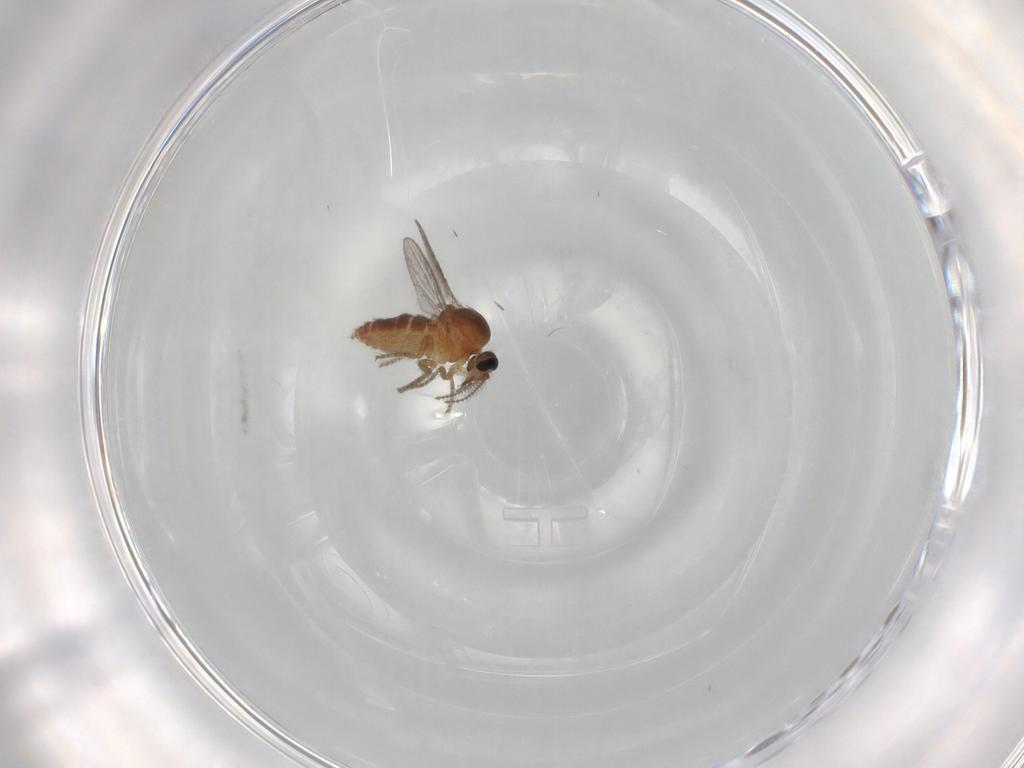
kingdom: Animalia
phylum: Arthropoda
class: Insecta
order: Diptera
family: Ceratopogonidae
